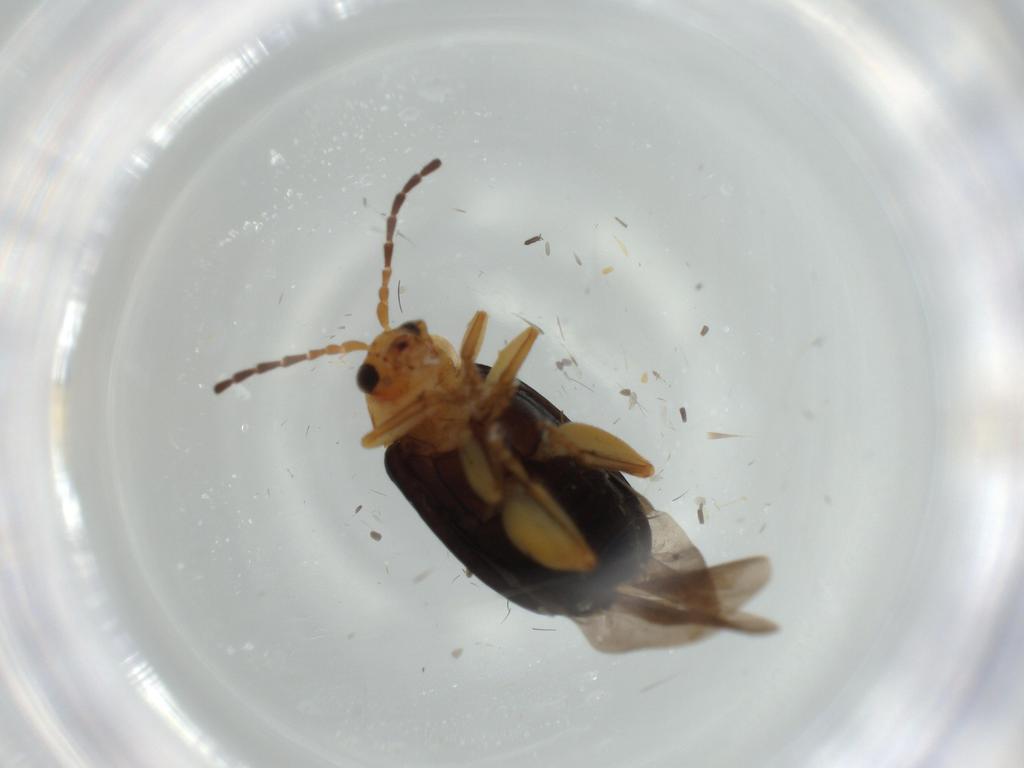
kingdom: Animalia
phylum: Arthropoda
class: Insecta
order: Coleoptera
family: Chrysomelidae
